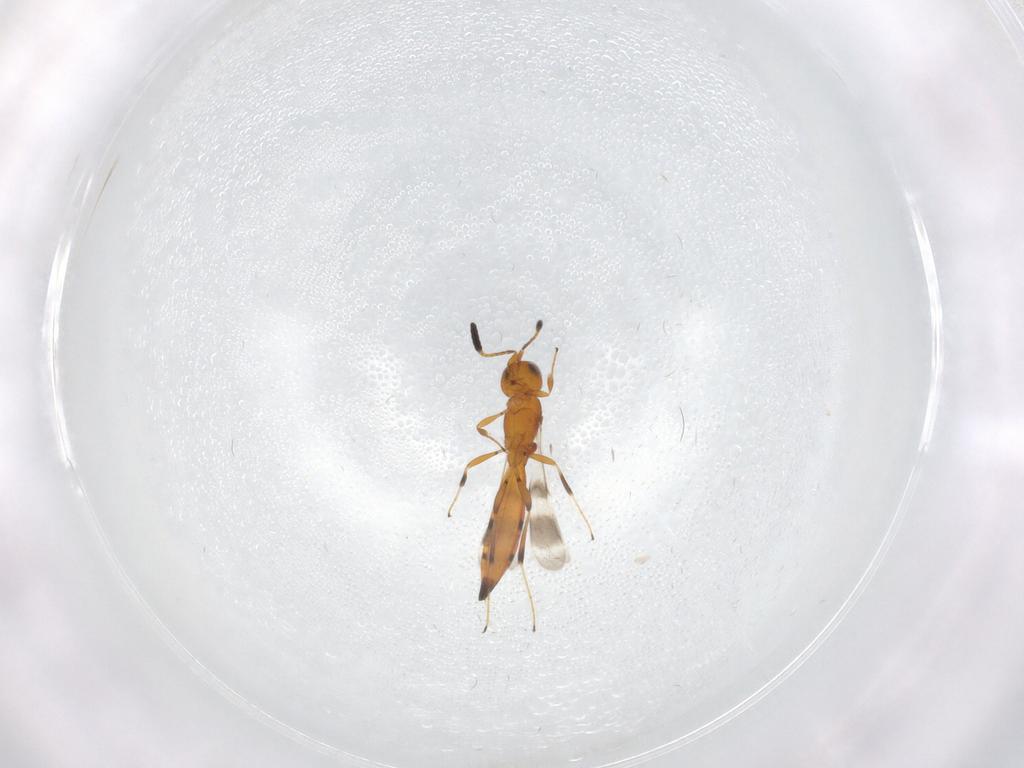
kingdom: Animalia
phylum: Arthropoda
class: Insecta
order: Hymenoptera
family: Scelionidae
